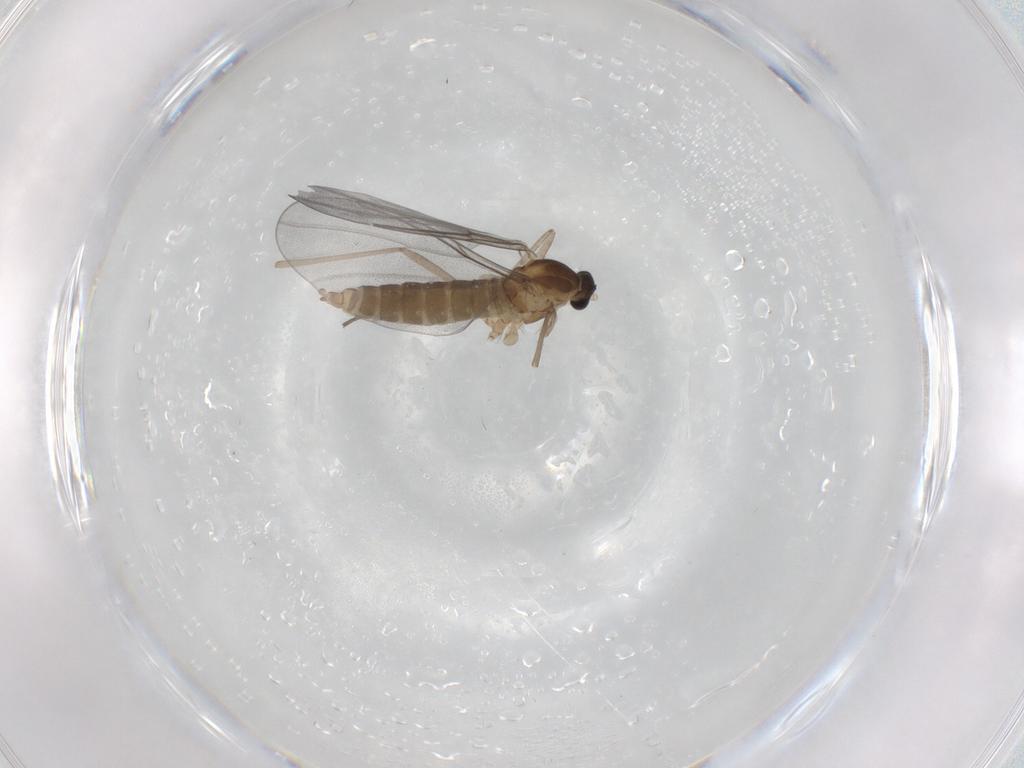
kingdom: Animalia
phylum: Arthropoda
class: Insecta
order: Diptera
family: Cecidomyiidae
